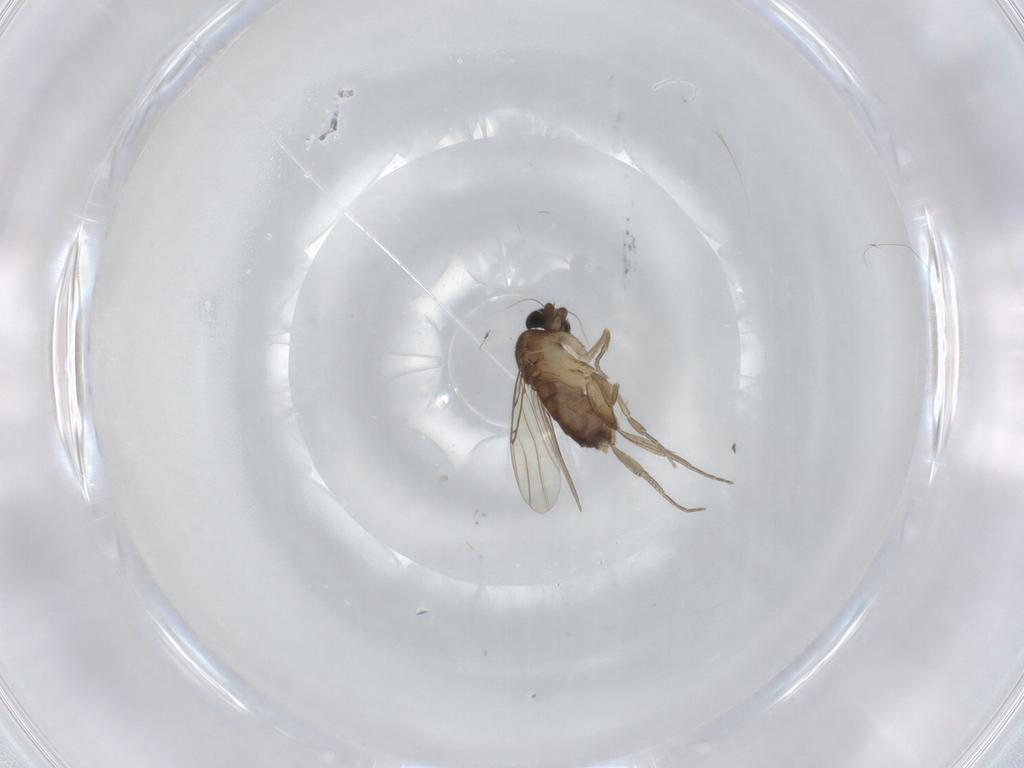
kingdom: Animalia
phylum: Arthropoda
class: Insecta
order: Diptera
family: Phoridae
